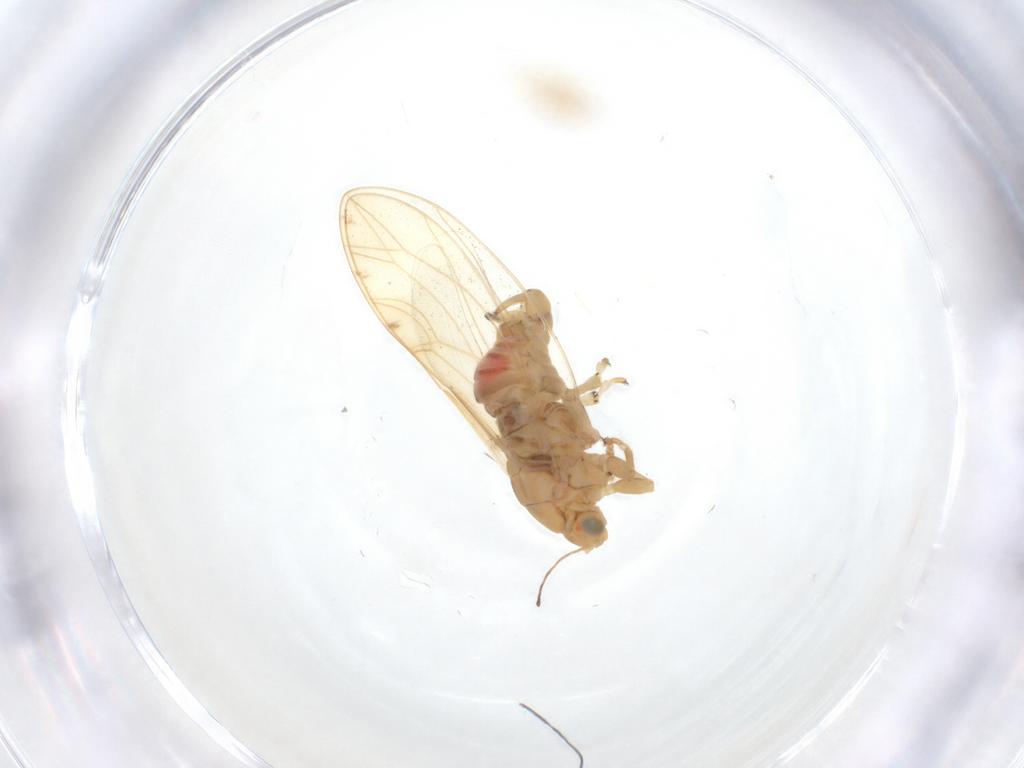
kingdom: Animalia
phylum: Arthropoda
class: Insecta
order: Hemiptera
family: Triozidae
